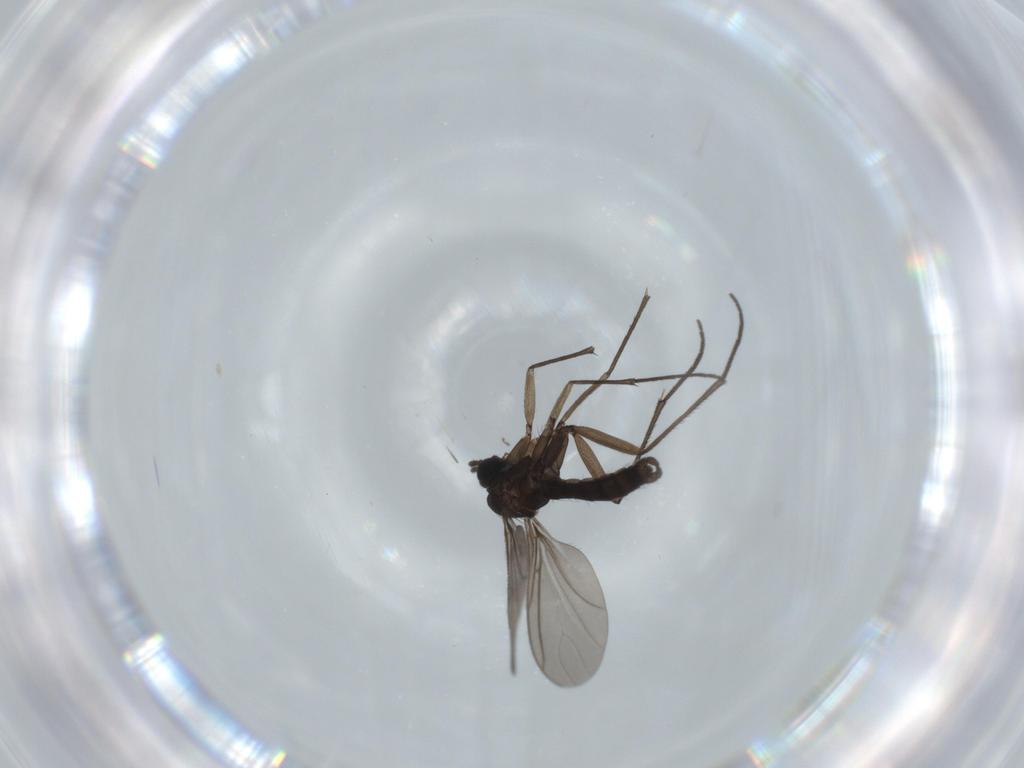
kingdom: Animalia
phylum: Arthropoda
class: Insecta
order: Diptera
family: Sciaridae
